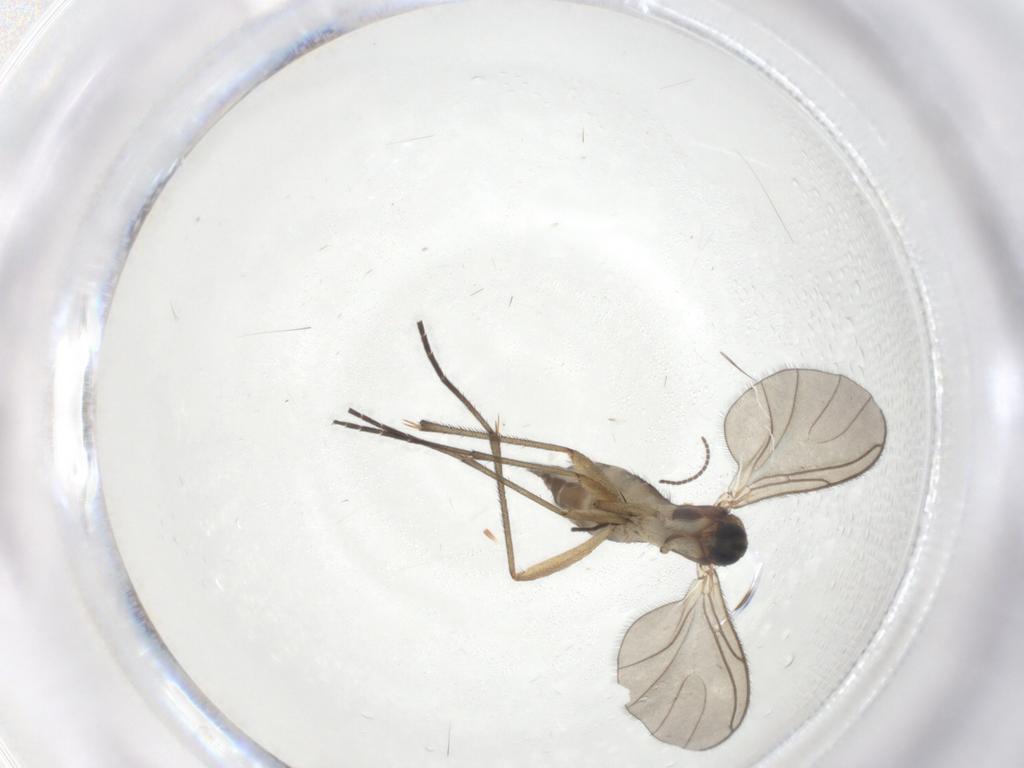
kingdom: Animalia
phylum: Arthropoda
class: Insecta
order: Diptera
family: Sciaridae
